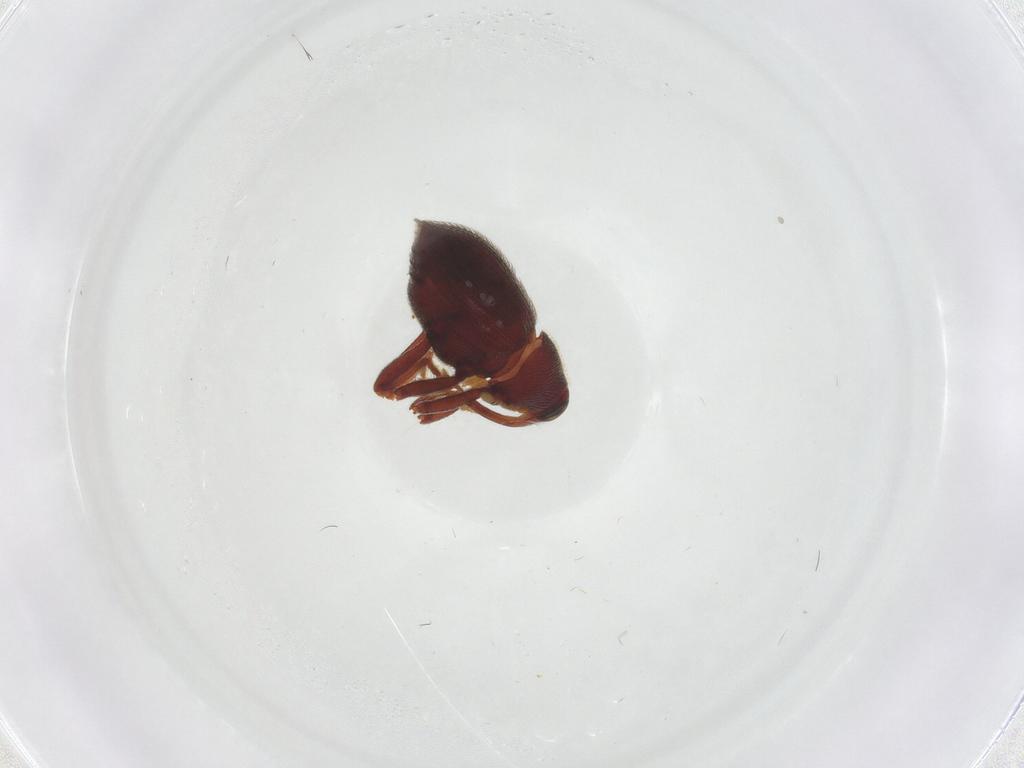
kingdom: Animalia
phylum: Arthropoda
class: Insecta
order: Coleoptera
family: Curculionidae
